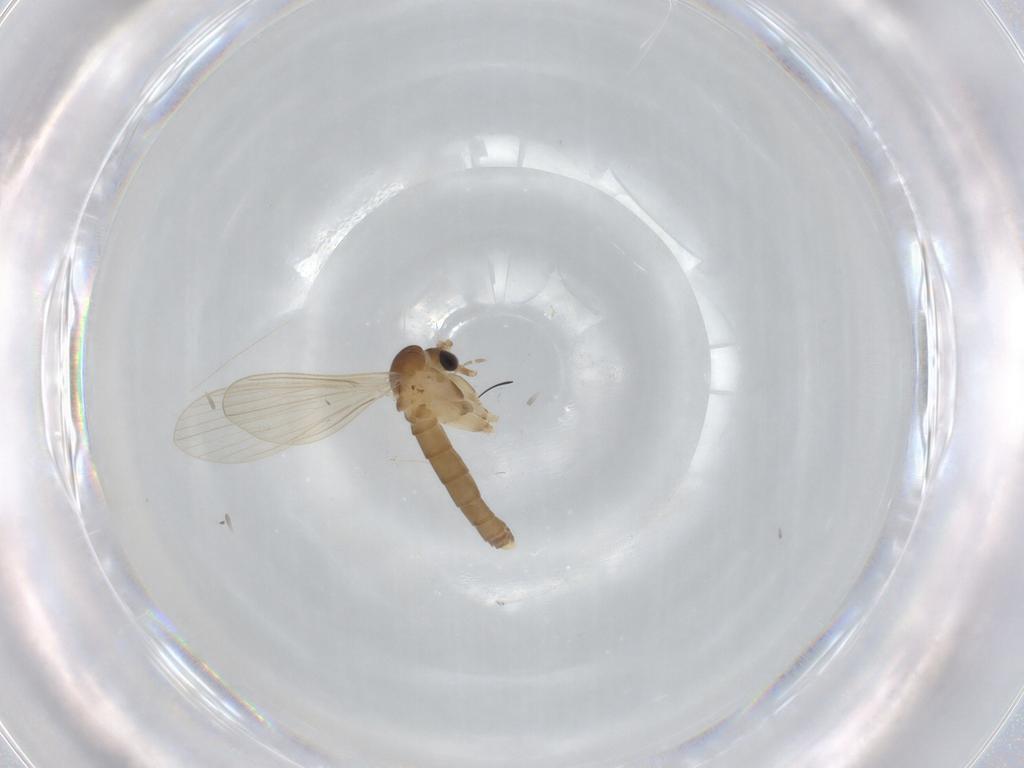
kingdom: Animalia
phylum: Arthropoda
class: Insecta
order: Diptera
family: Psychodidae
